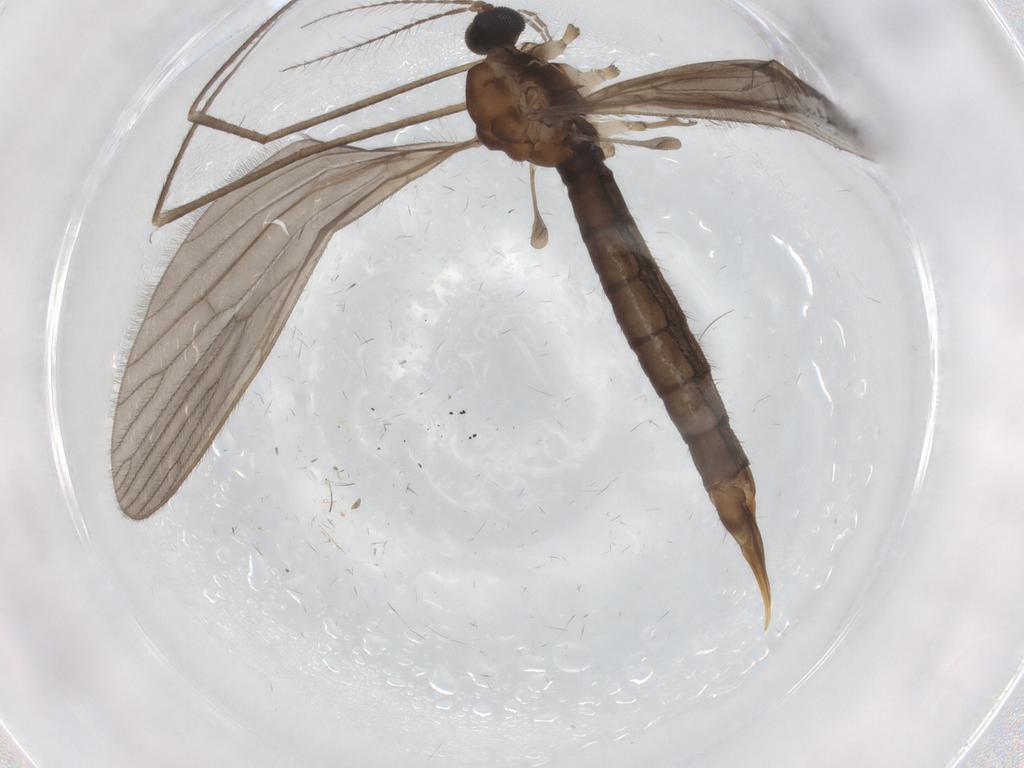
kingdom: Animalia
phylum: Arthropoda
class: Insecta
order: Diptera
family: Limoniidae
